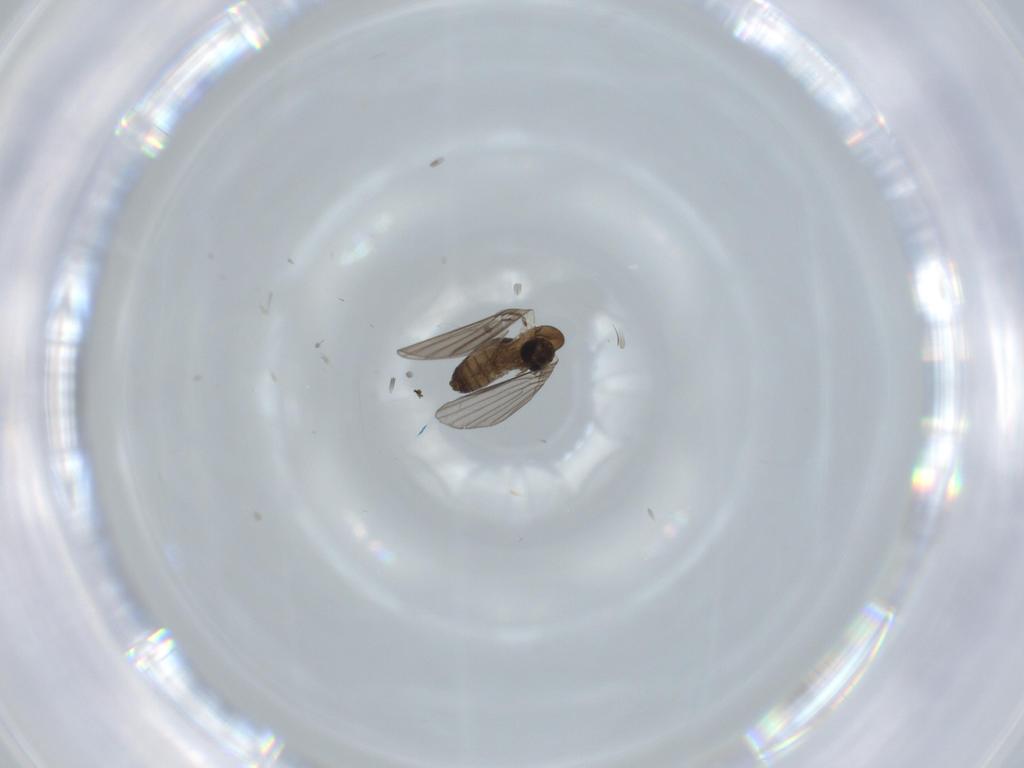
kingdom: Animalia
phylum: Arthropoda
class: Insecta
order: Diptera
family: Psychodidae
